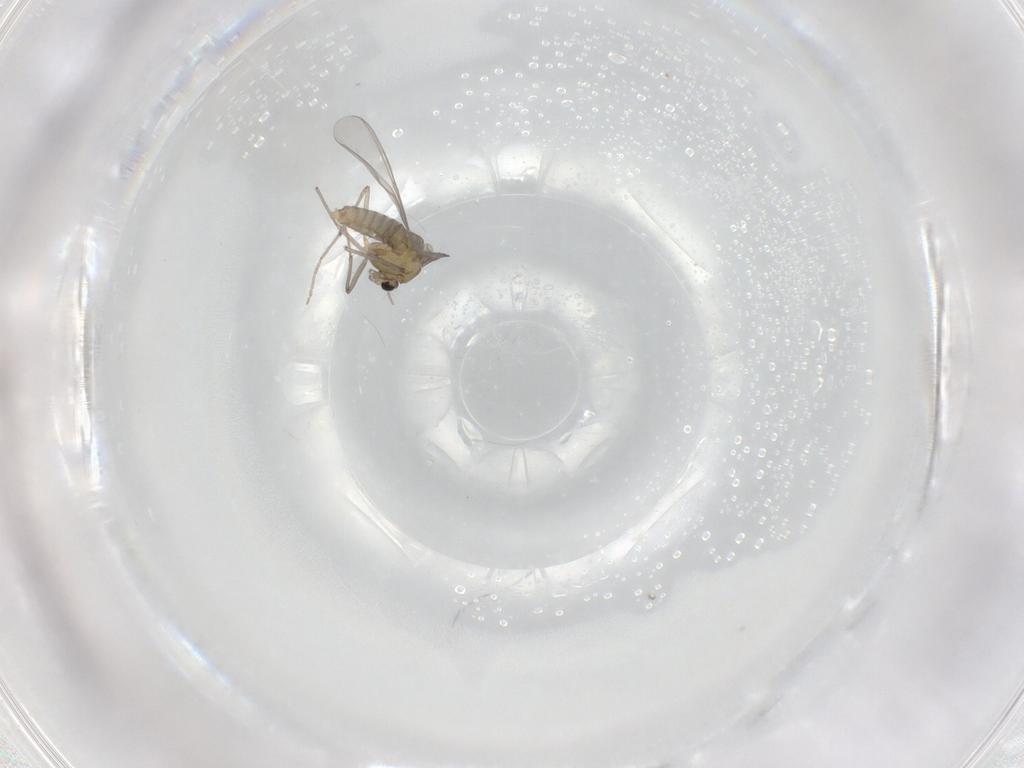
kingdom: Animalia
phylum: Arthropoda
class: Insecta
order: Diptera
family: Chironomidae
